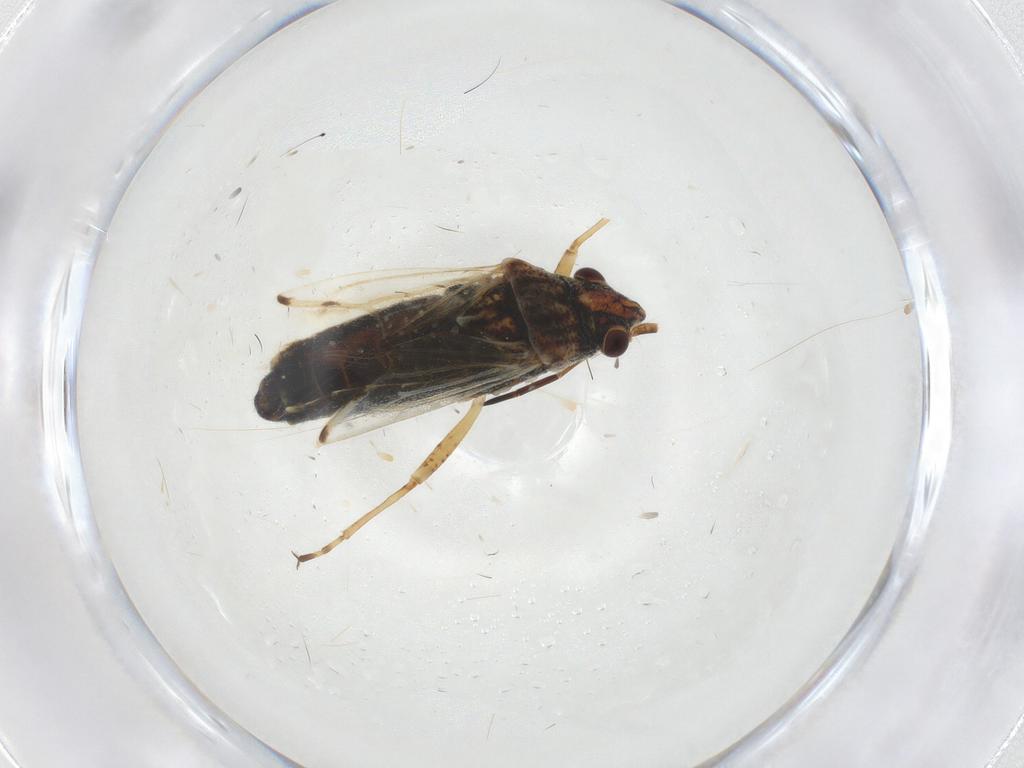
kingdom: Animalia
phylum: Arthropoda
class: Insecta
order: Hemiptera
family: Lygaeidae
